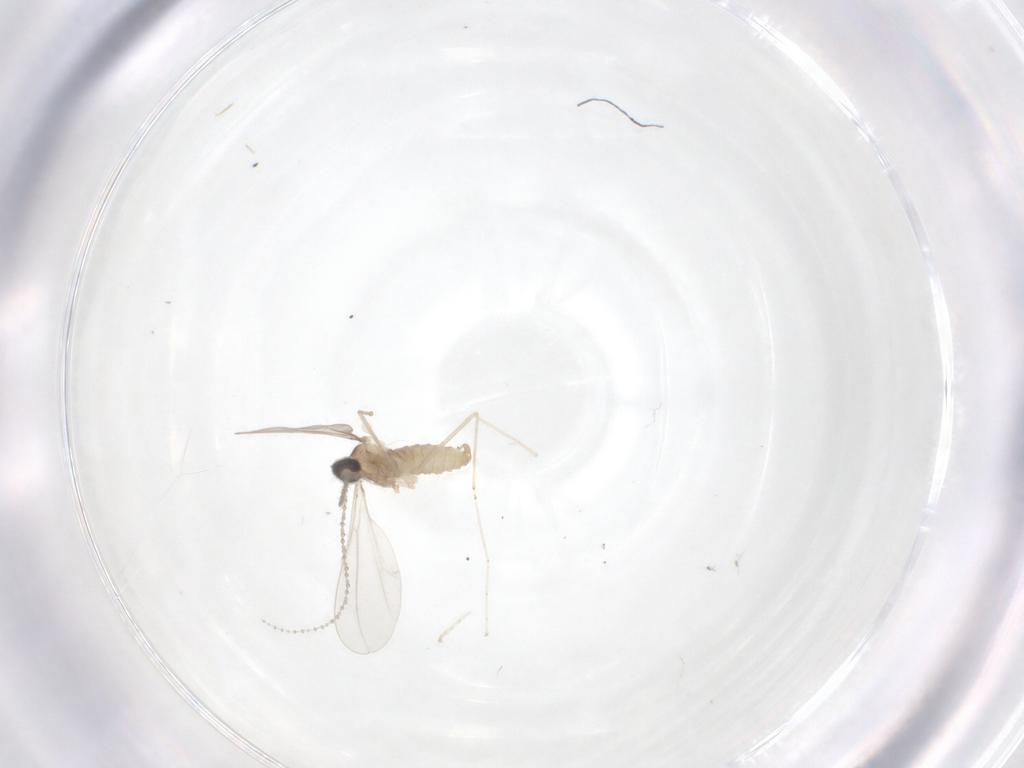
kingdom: Animalia
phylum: Arthropoda
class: Insecta
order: Diptera
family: Cecidomyiidae
